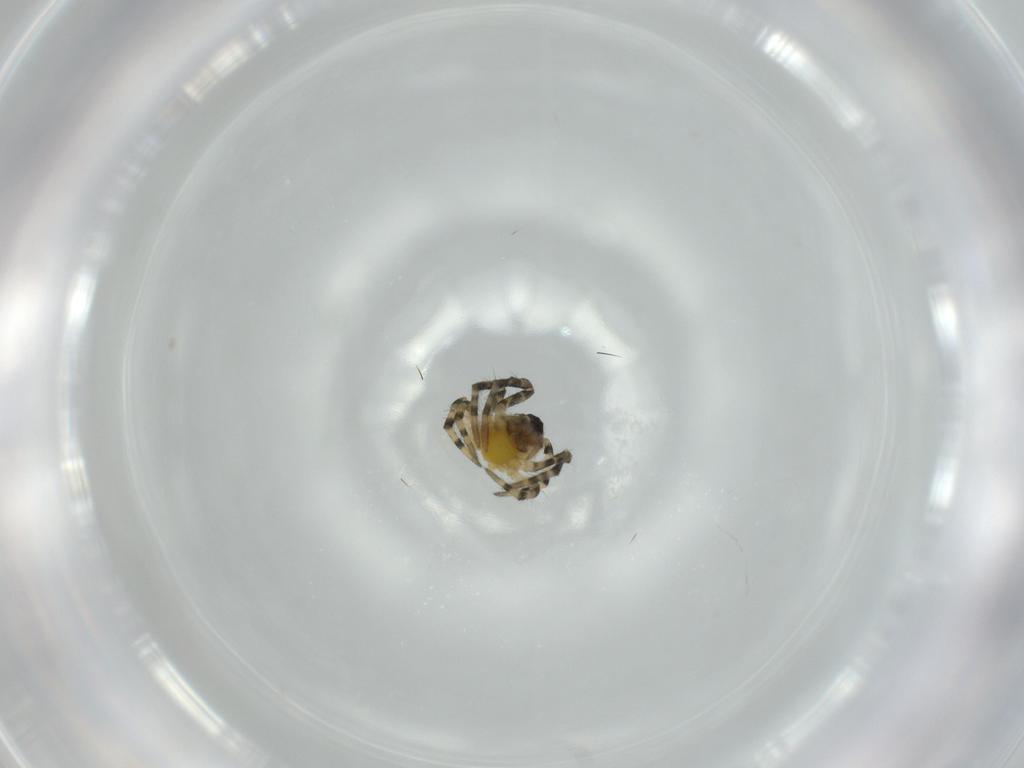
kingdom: Animalia
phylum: Arthropoda
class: Arachnida
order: Araneae
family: Nesticidae
